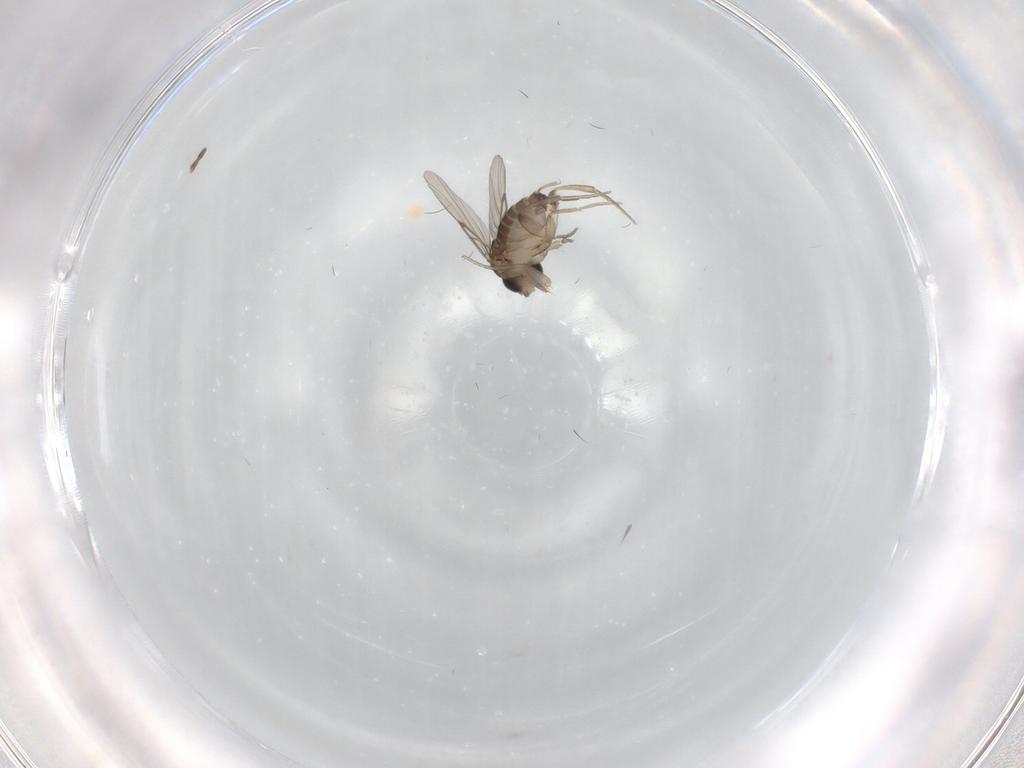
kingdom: Animalia
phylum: Arthropoda
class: Insecta
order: Diptera
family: Phoridae
